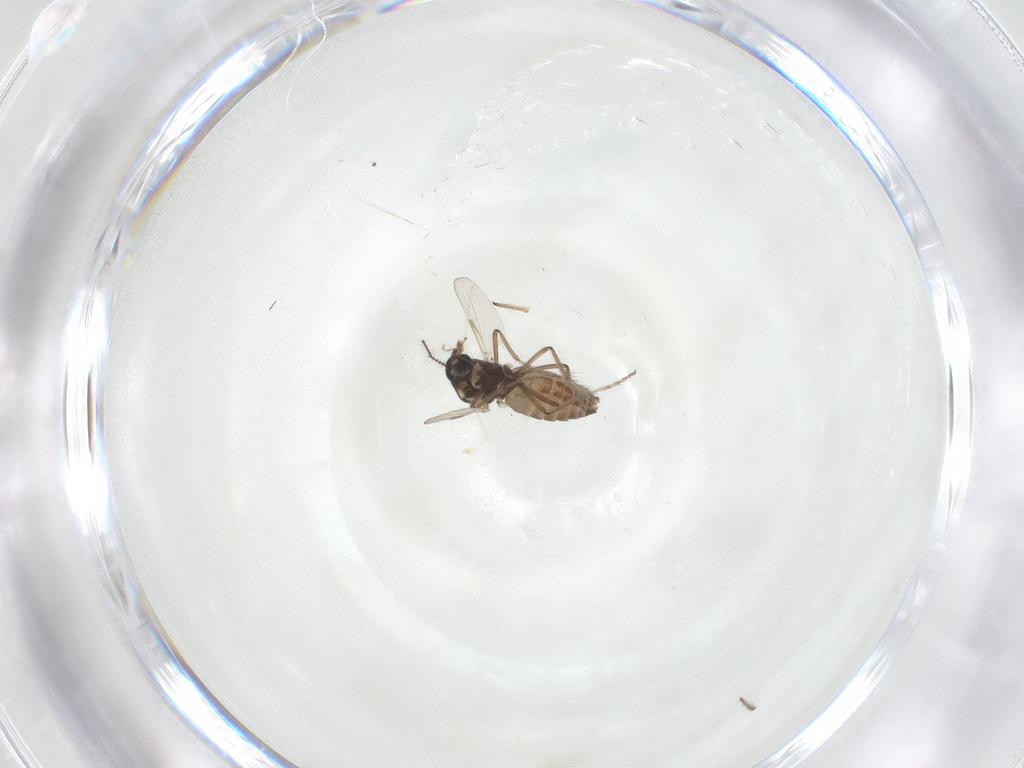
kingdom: Animalia
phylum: Arthropoda
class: Insecta
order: Diptera
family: Ceratopogonidae
